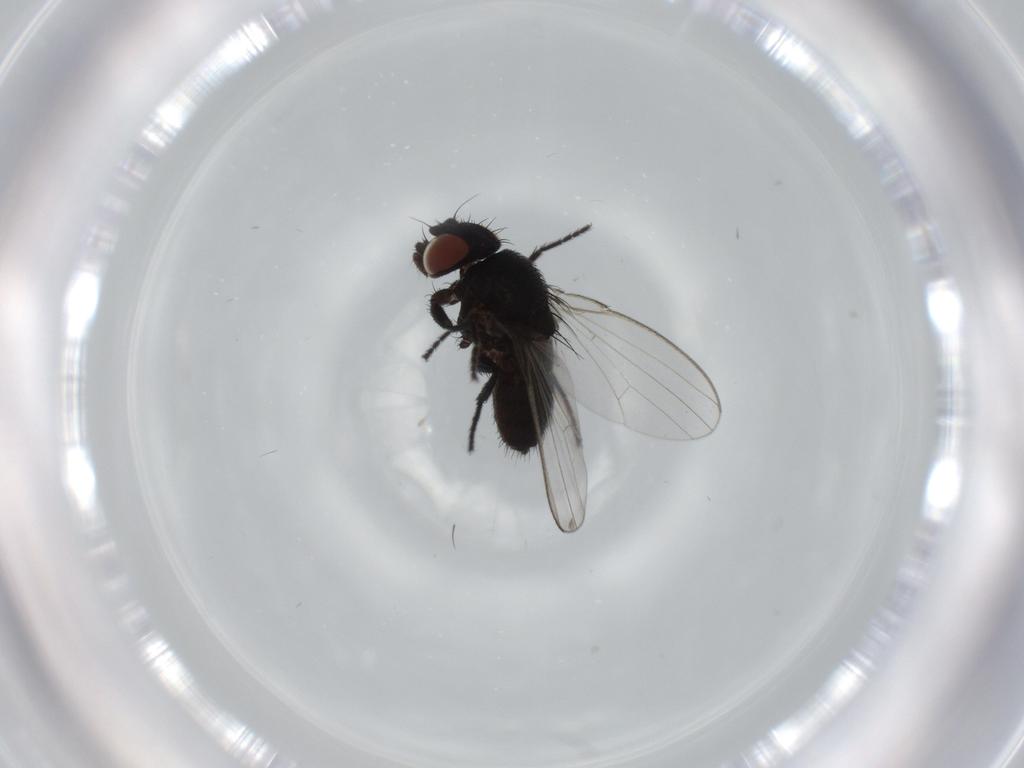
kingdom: Animalia
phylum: Arthropoda
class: Insecta
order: Diptera
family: Milichiidae
